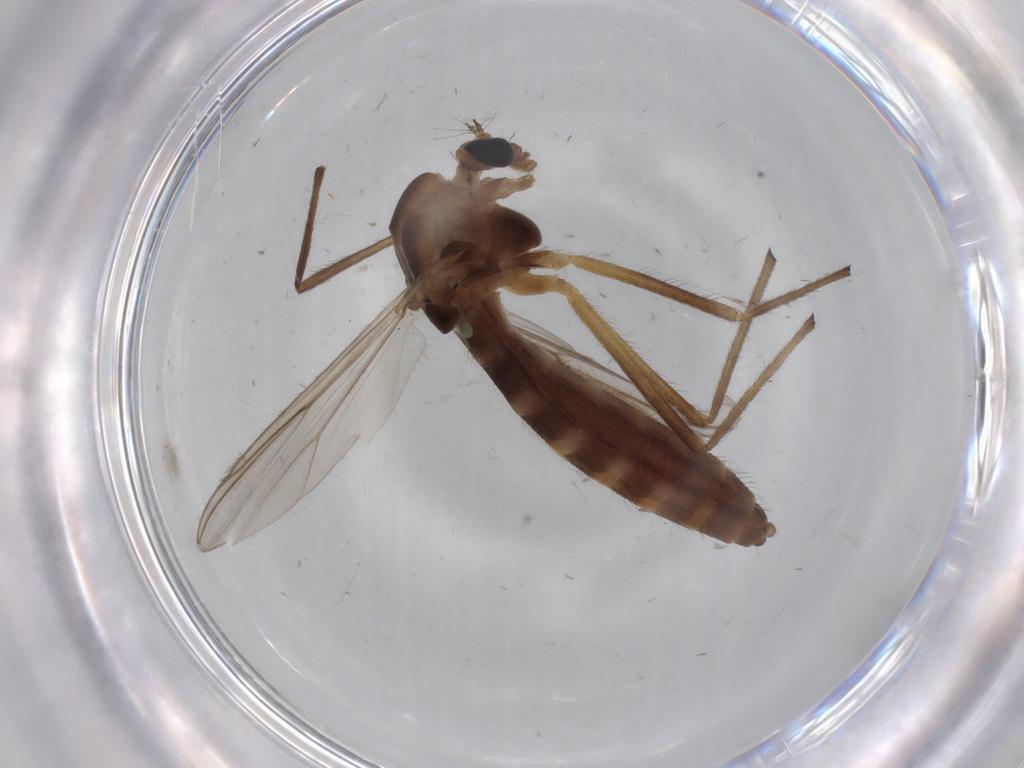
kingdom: Animalia
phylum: Arthropoda
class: Insecta
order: Diptera
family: Chironomidae
